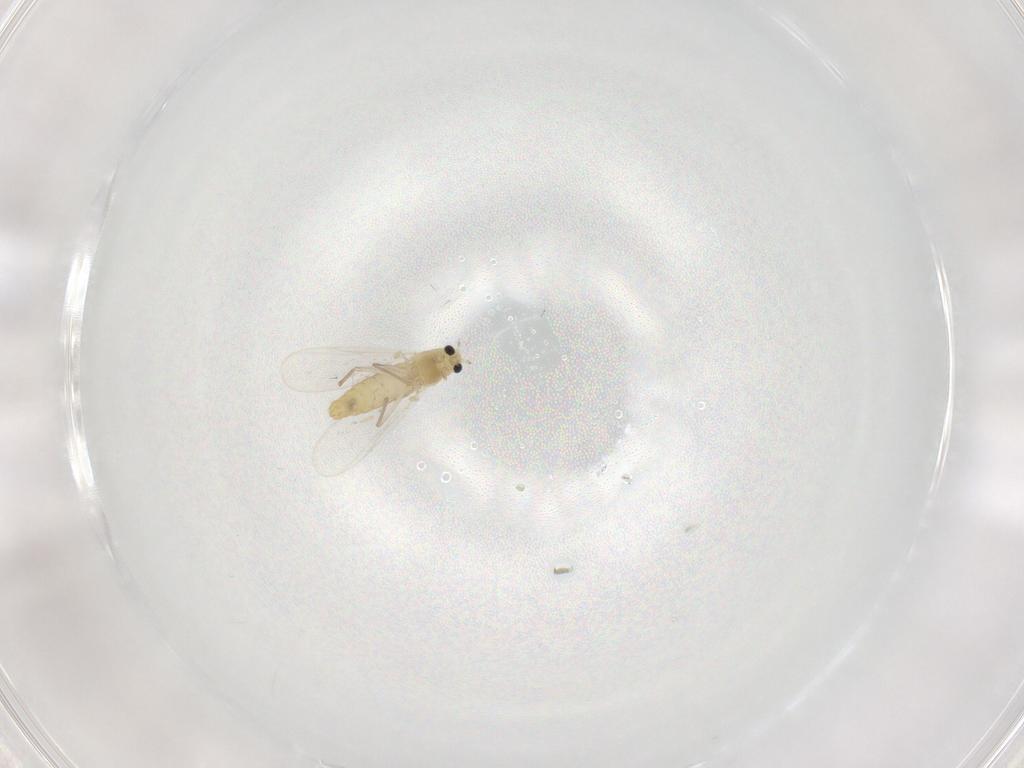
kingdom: Animalia
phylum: Arthropoda
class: Insecta
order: Diptera
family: Chironomidae
